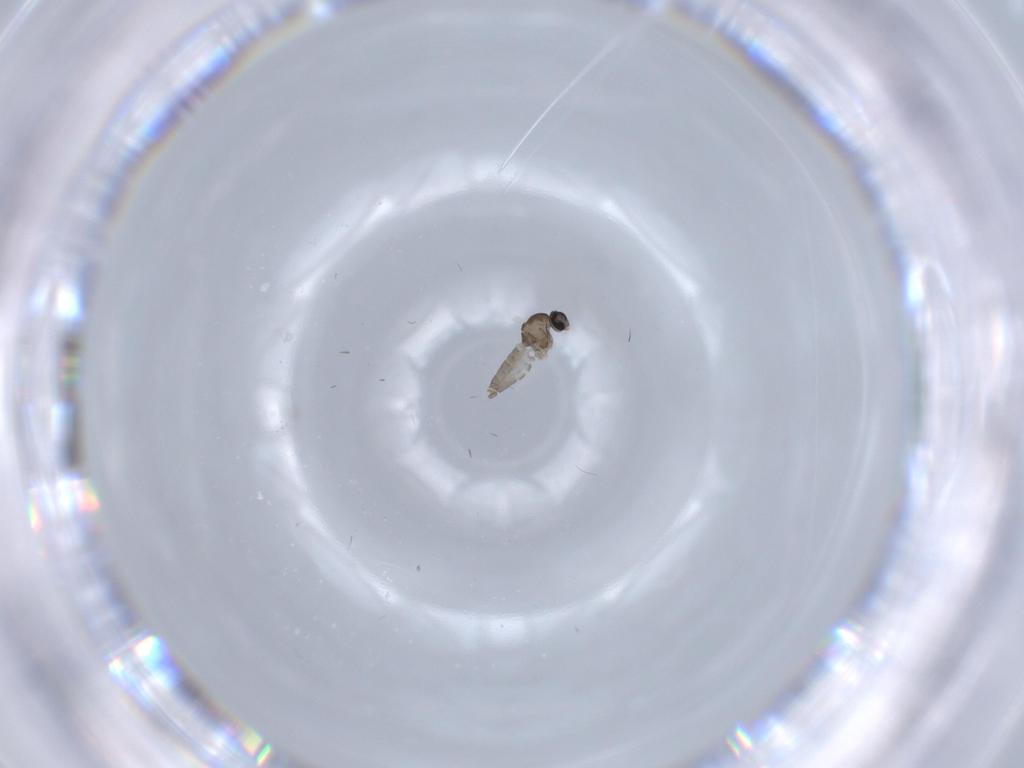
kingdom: Animalia
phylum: Arthropoda
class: Insecta
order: Diptera
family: Cecidomyiidae
